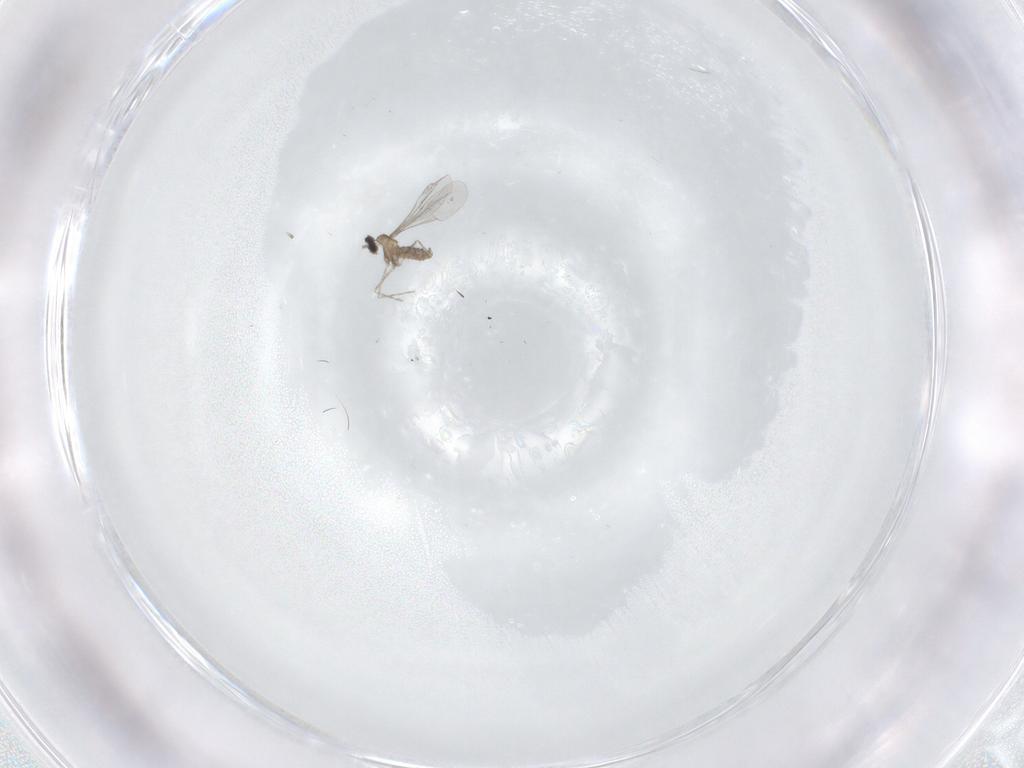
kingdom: Animalia
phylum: Arthropoda
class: Insecta
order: Diptera
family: Cecidomyiidae
